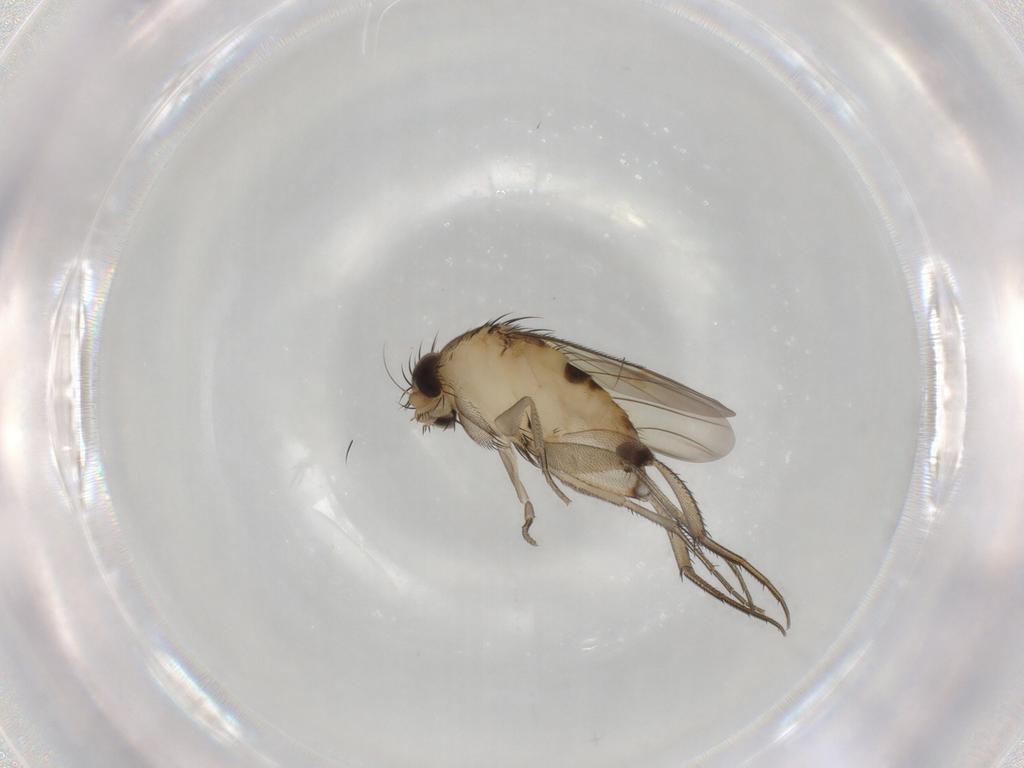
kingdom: Animalia
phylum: Arthropoda
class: Insecta
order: Diptera
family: Phoridae
